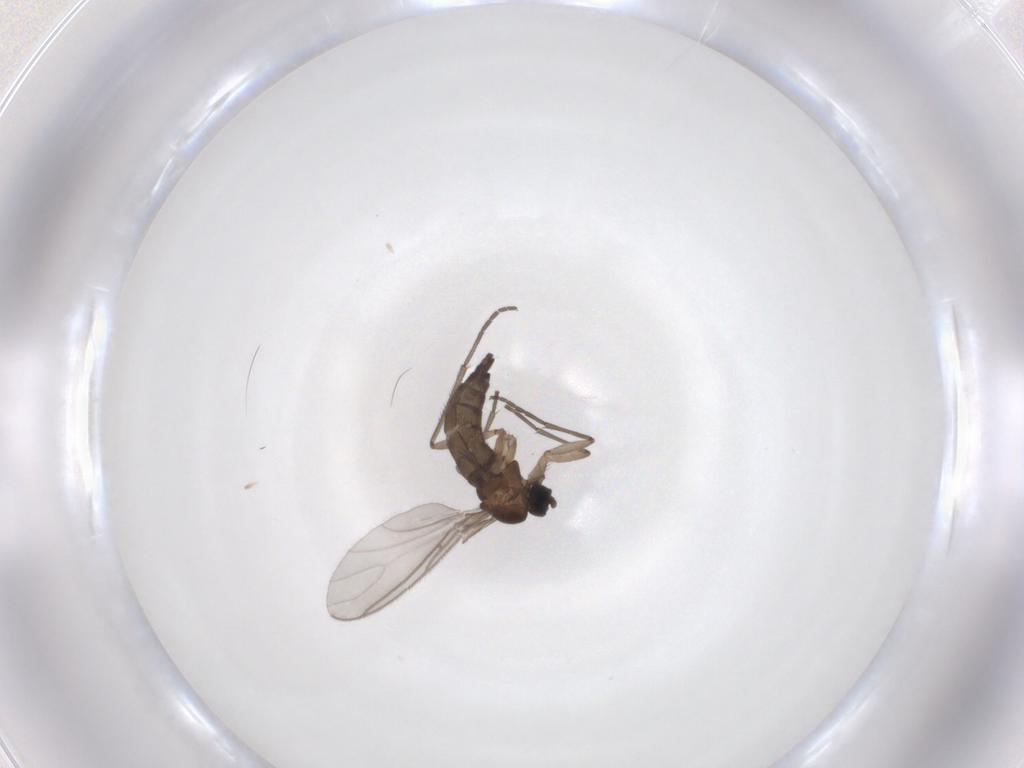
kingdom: Animalia
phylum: Arthropoda
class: Insecta
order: Diptera
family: Sciaridae
